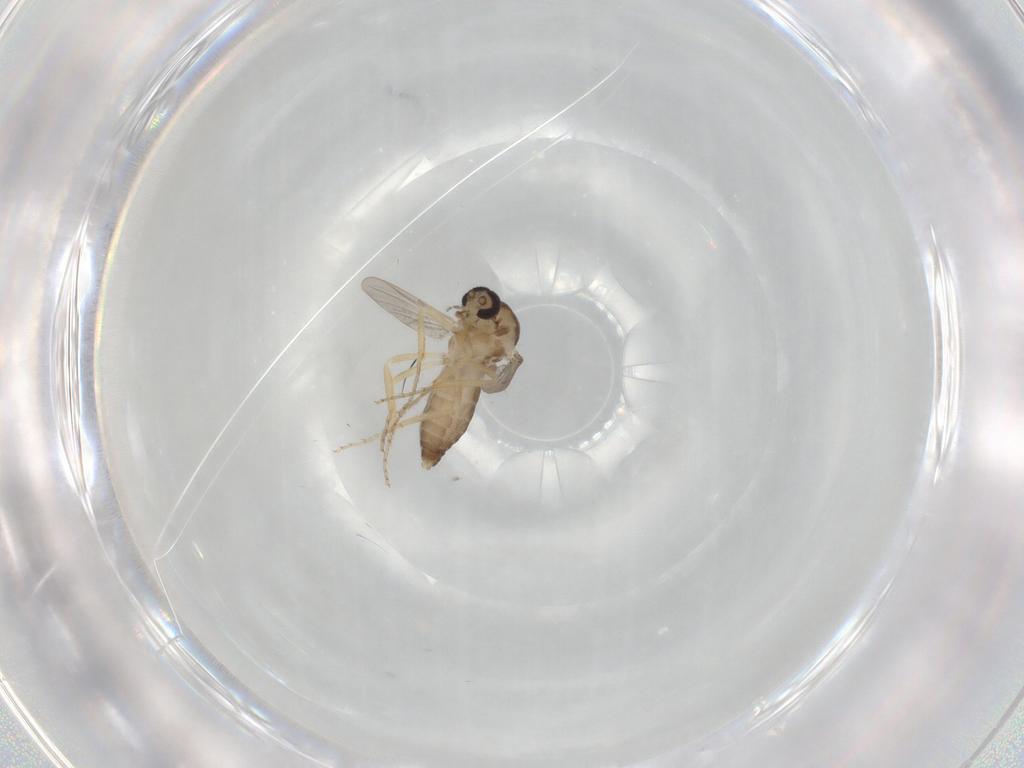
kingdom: Animalia
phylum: Arthropoda
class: Insecta
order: Diptera
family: Ceratopogonidae
